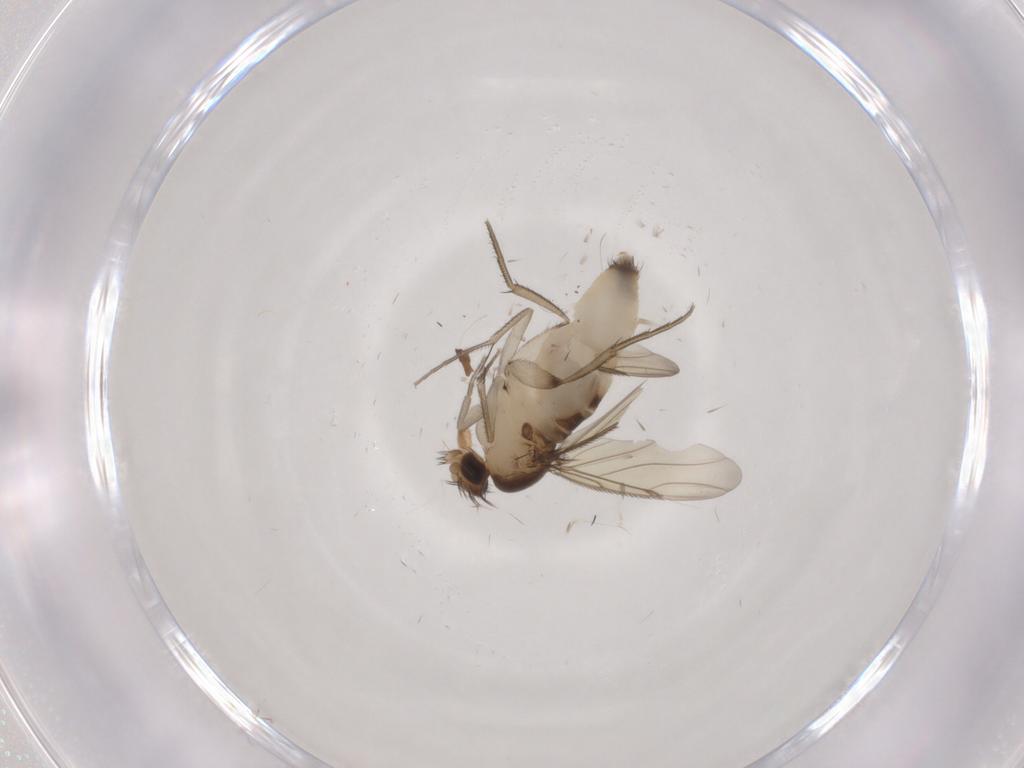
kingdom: Animalia
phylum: Arthropoda
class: Insecta
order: Diptera
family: Phoridae
